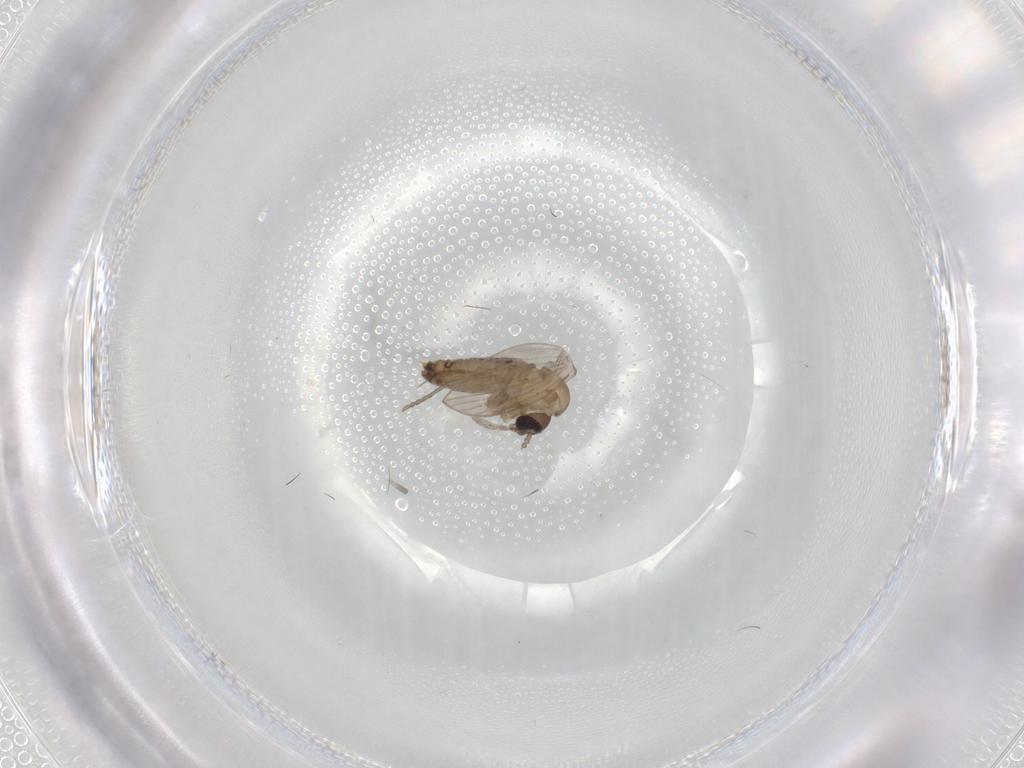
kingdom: Animalia
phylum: Arthropoda
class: Insecta
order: Diptera
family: Psychodidae
